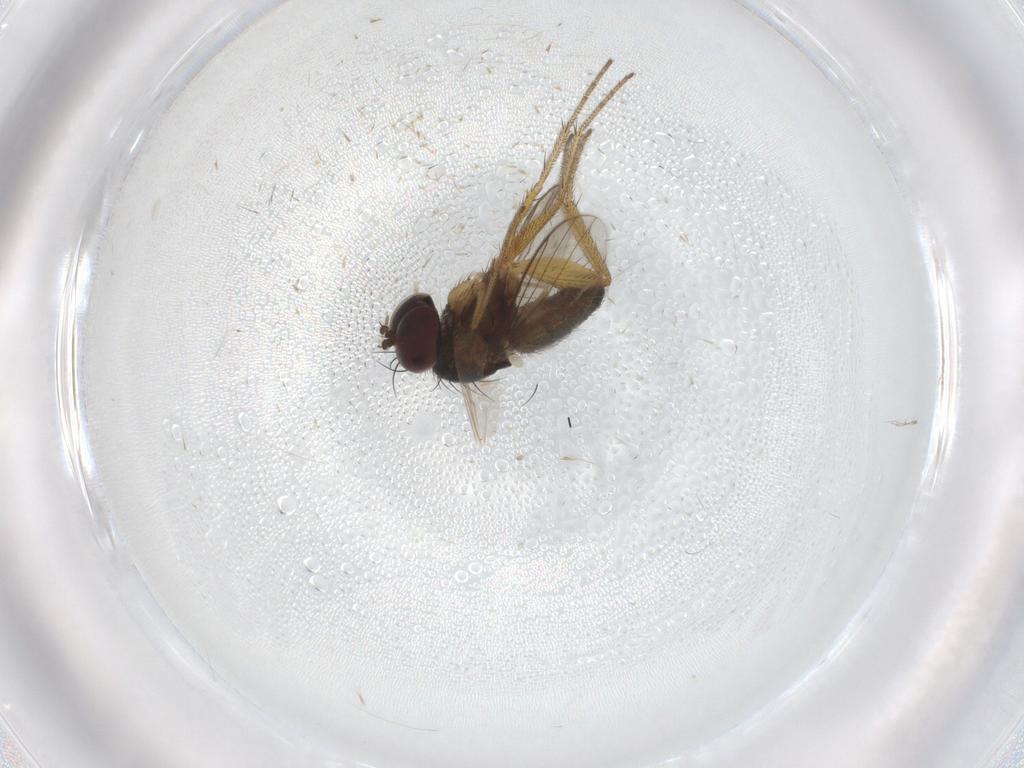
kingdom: Animalia
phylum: Arthropoda
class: Insecta
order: Diptera
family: Chironomidae
